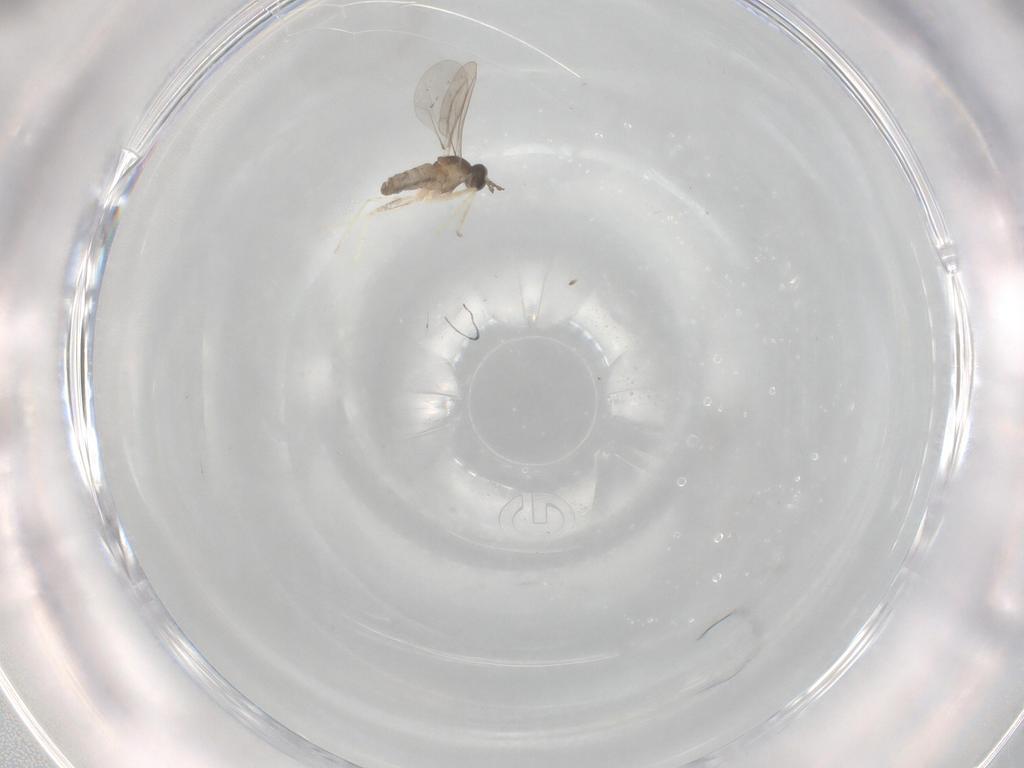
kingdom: Animalia
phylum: Arthropoda
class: Insecta
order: Diptera
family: Cecidomyiidae
